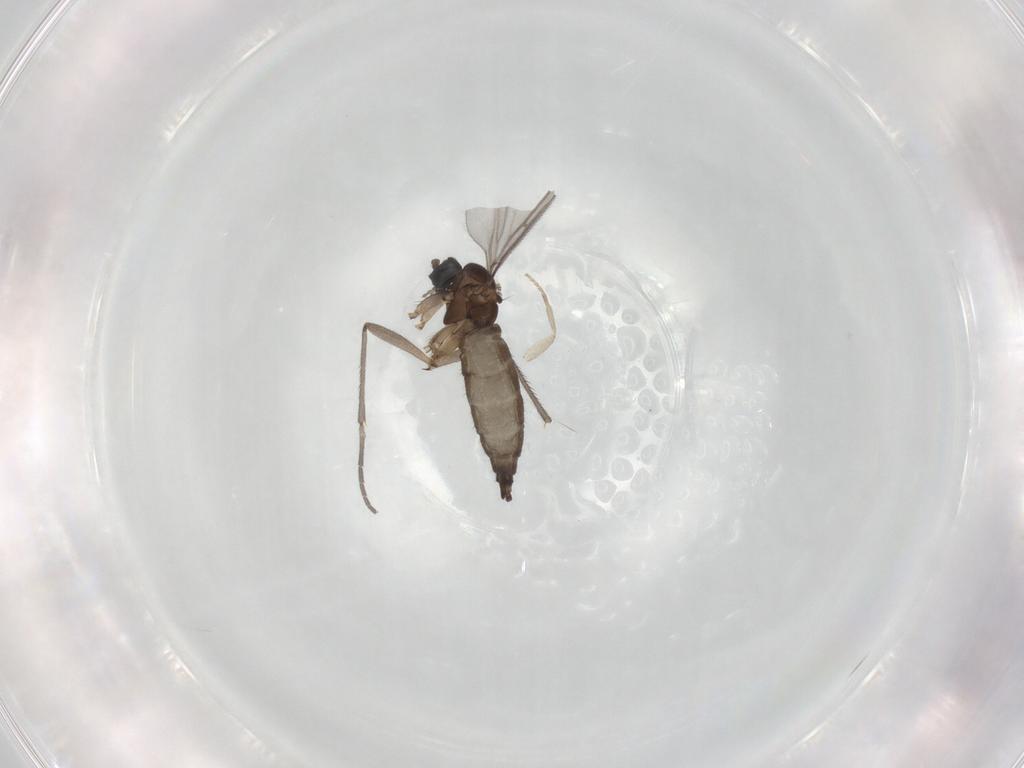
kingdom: Animalia
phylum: Arthropoda
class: Insecta
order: Diptera
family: Sciaridae
